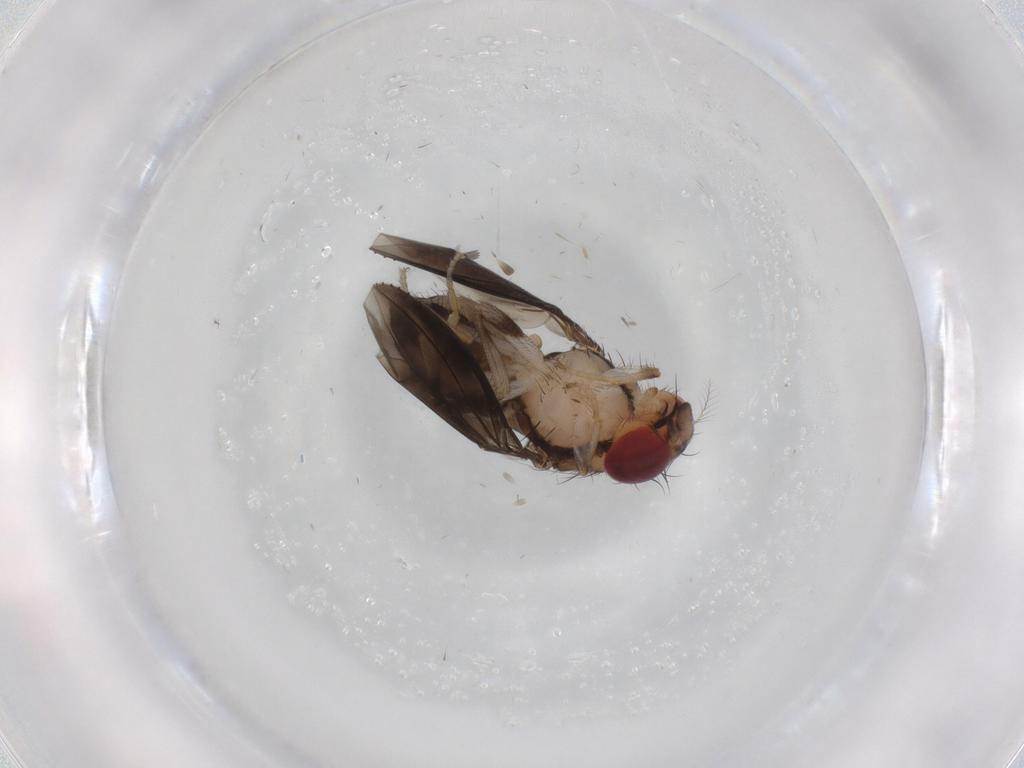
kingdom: Animalia
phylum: Arthropoda
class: Insecta
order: Diptera
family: Drosophilidae
